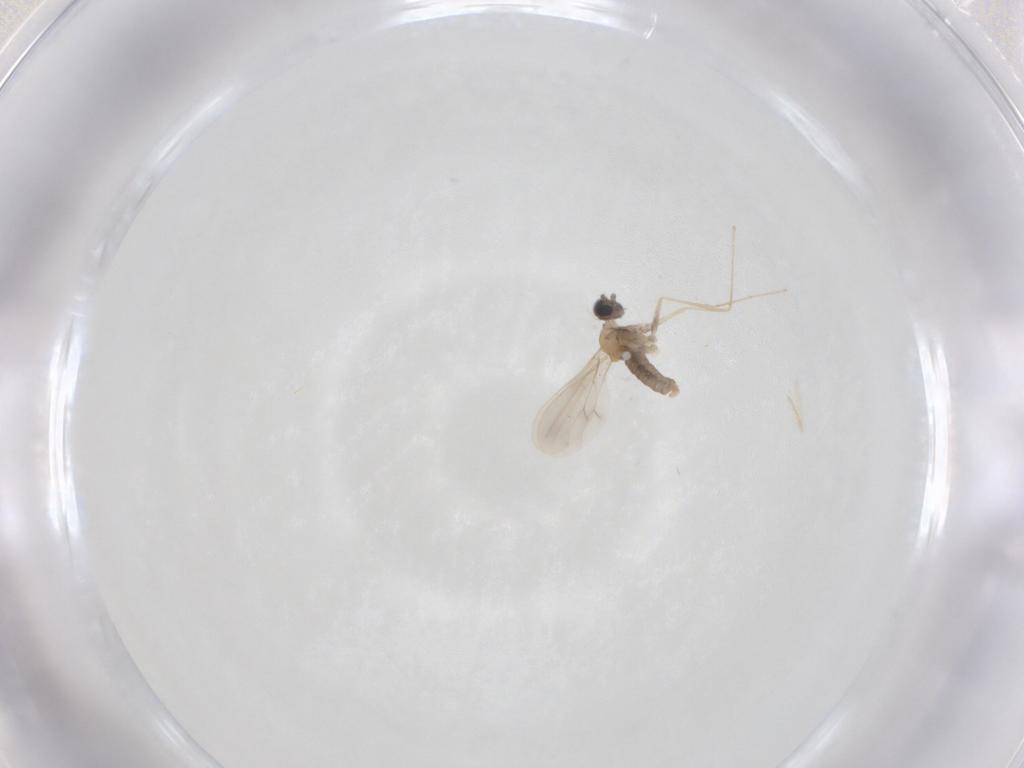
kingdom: Animalia
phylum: Arthropoda
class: Insecta
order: Diptera
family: Cecidomyiidae
